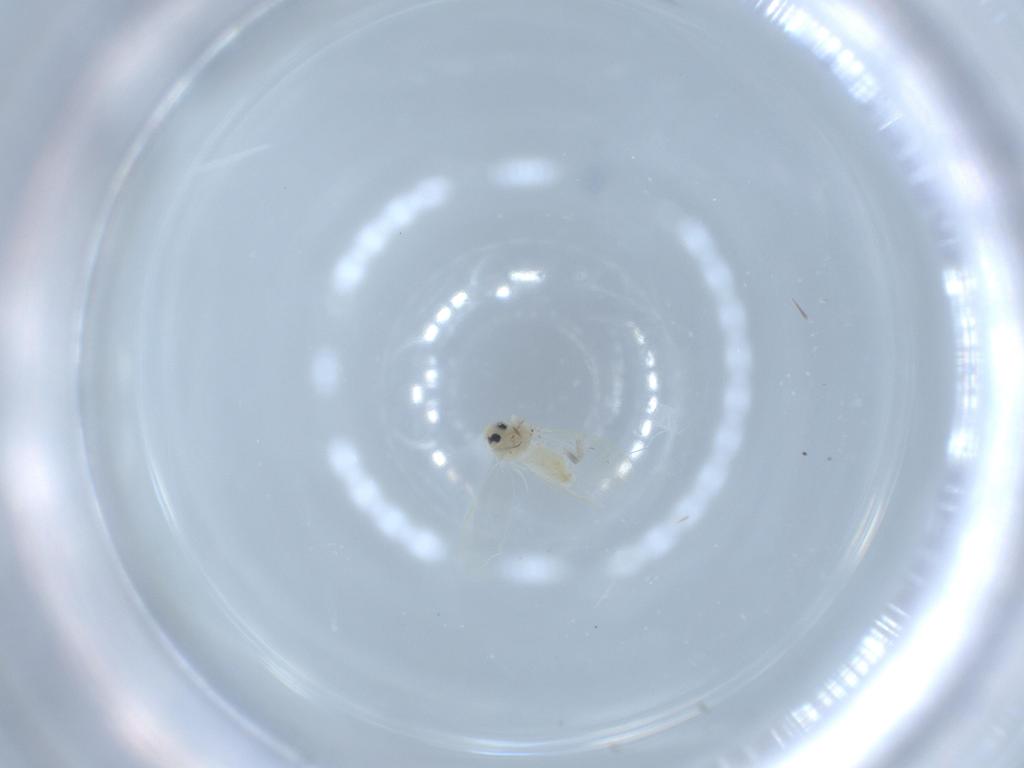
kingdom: Animalia
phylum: Arthropoda
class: Insecta
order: Hemiptera
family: Aleyrodidae
